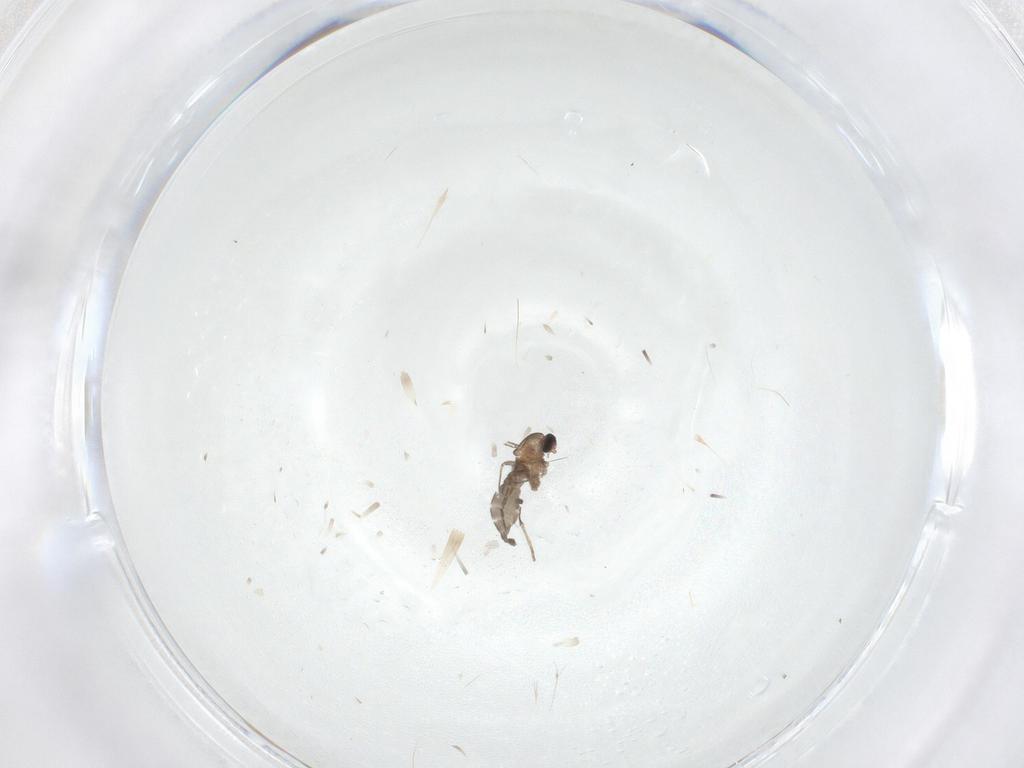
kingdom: Animalia
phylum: Arthropoda
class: Insecta
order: Diptera
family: Cecidomyiidae
